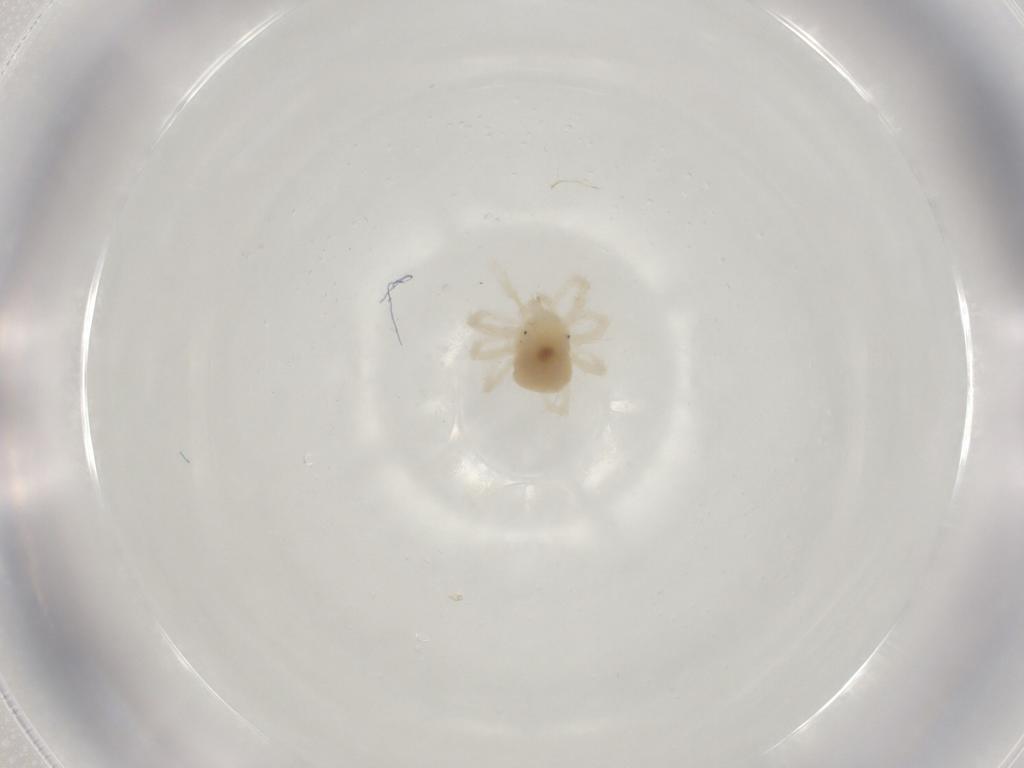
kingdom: Animalia
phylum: Arthropoda
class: Arachnida
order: Trombidiformes
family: Anystidae
